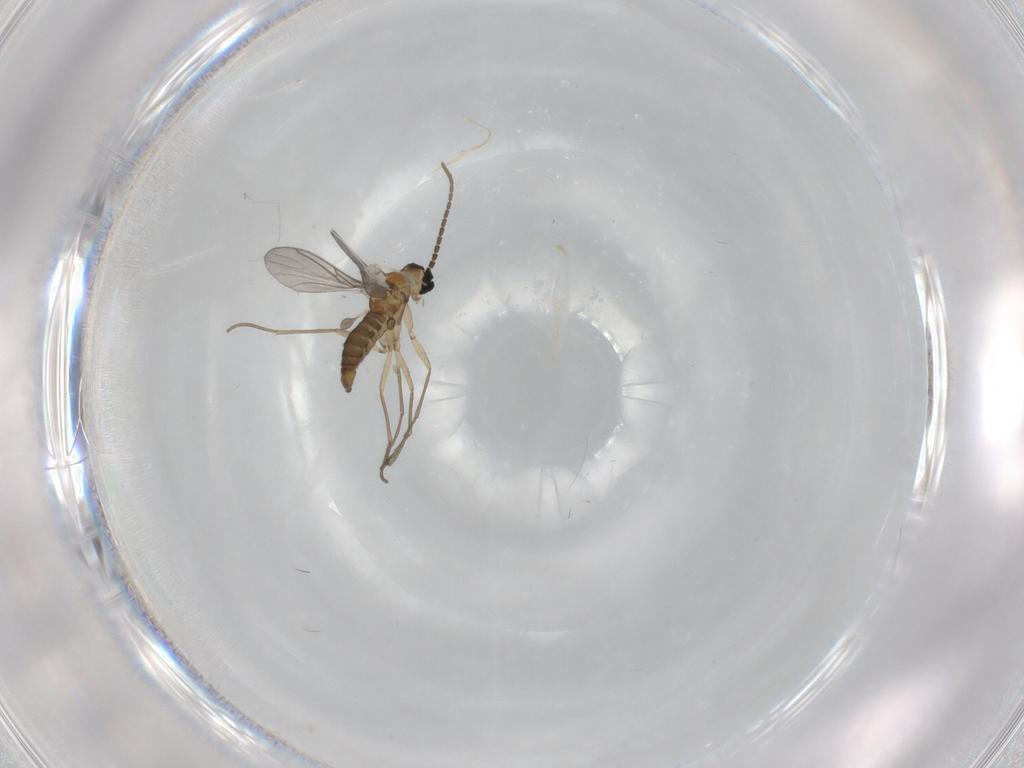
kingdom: Animalia
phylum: Arthropoda
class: Insecta
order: Diptera
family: Sciaridae
